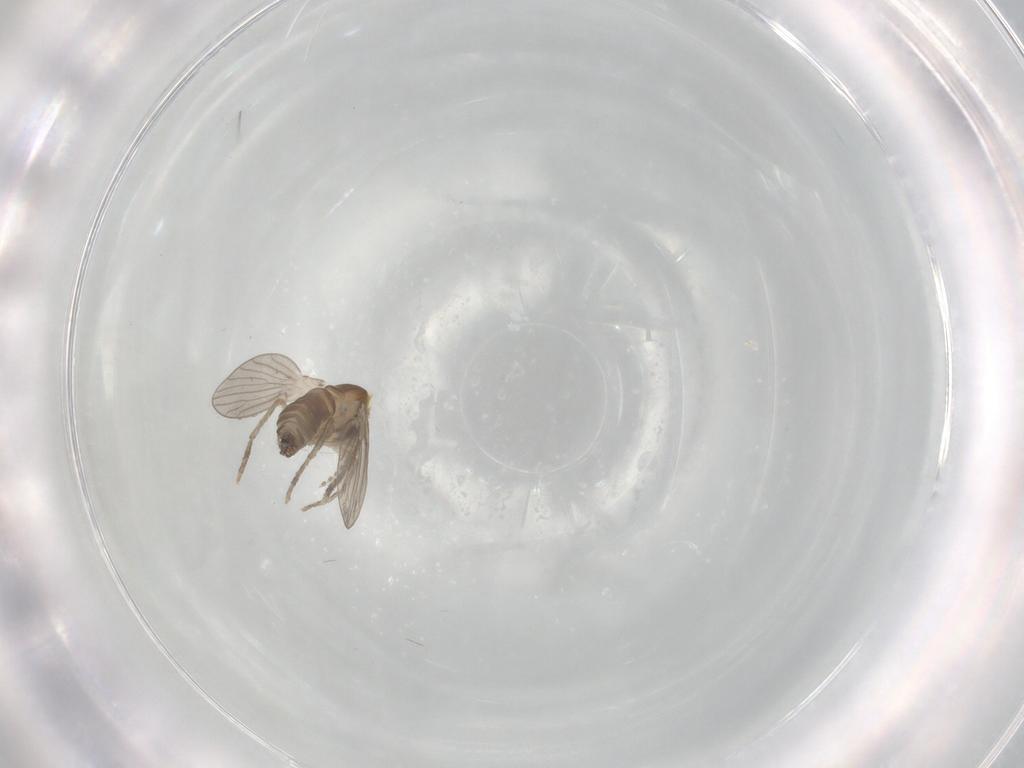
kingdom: Animalia
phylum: Arthropoda
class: Insecta
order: Diptera
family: Psychodidae
